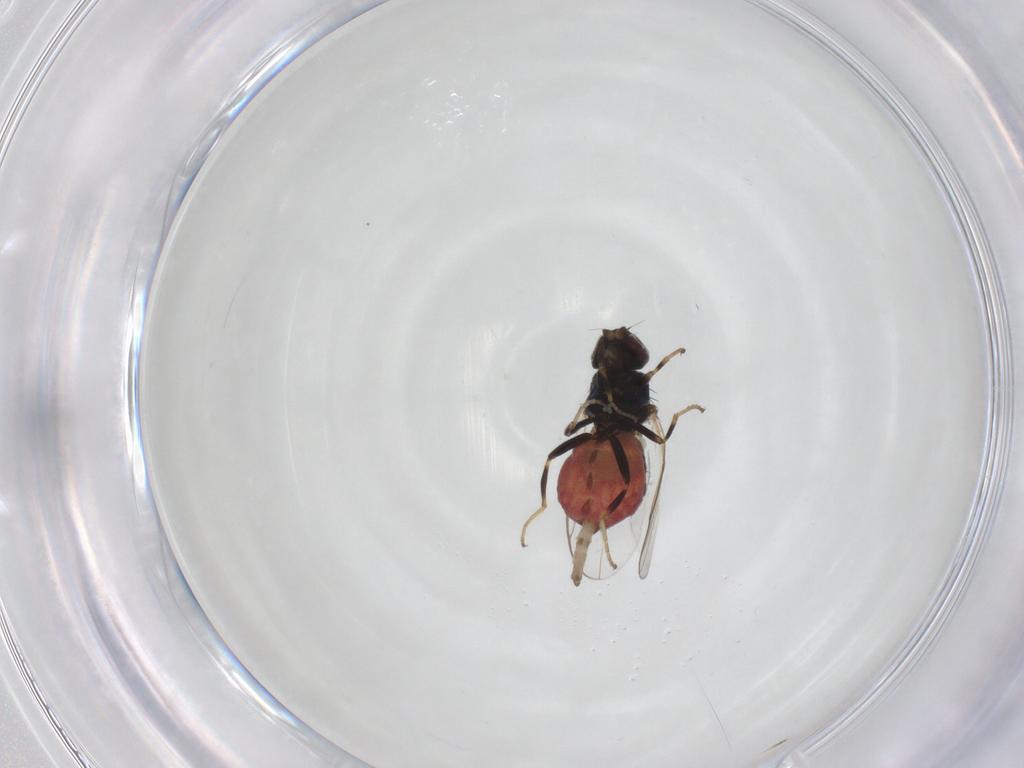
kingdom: Animalia
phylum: Arthropoda
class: Insecta
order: Diptera
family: Chloropidae
